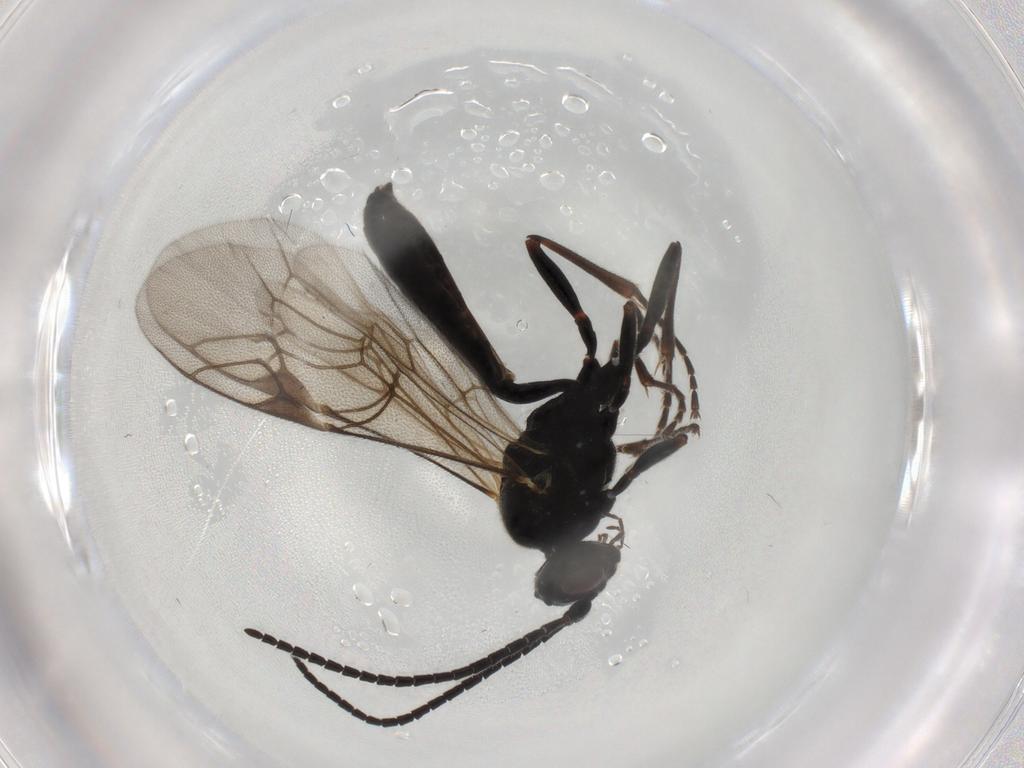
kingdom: Animalia
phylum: Arthropoda
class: Insecta
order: Hymenoptera
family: Ichneumonidae
